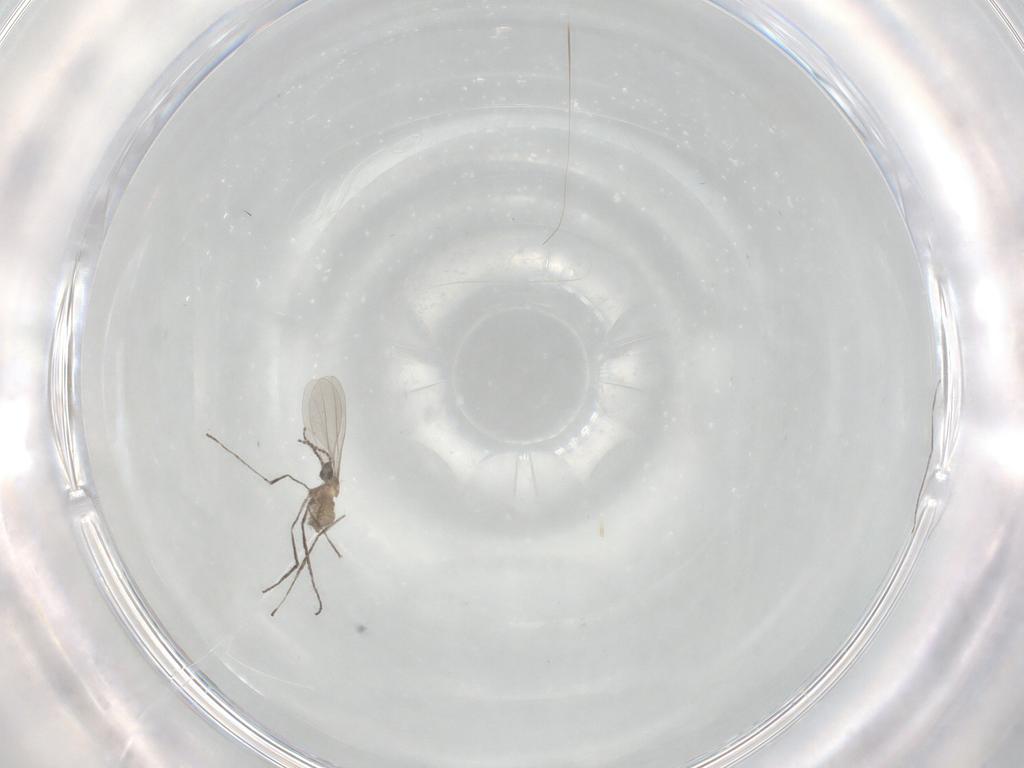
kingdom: Animalia
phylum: Arthropoda
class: Insecta
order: Diptera
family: Cecidomyiidae
